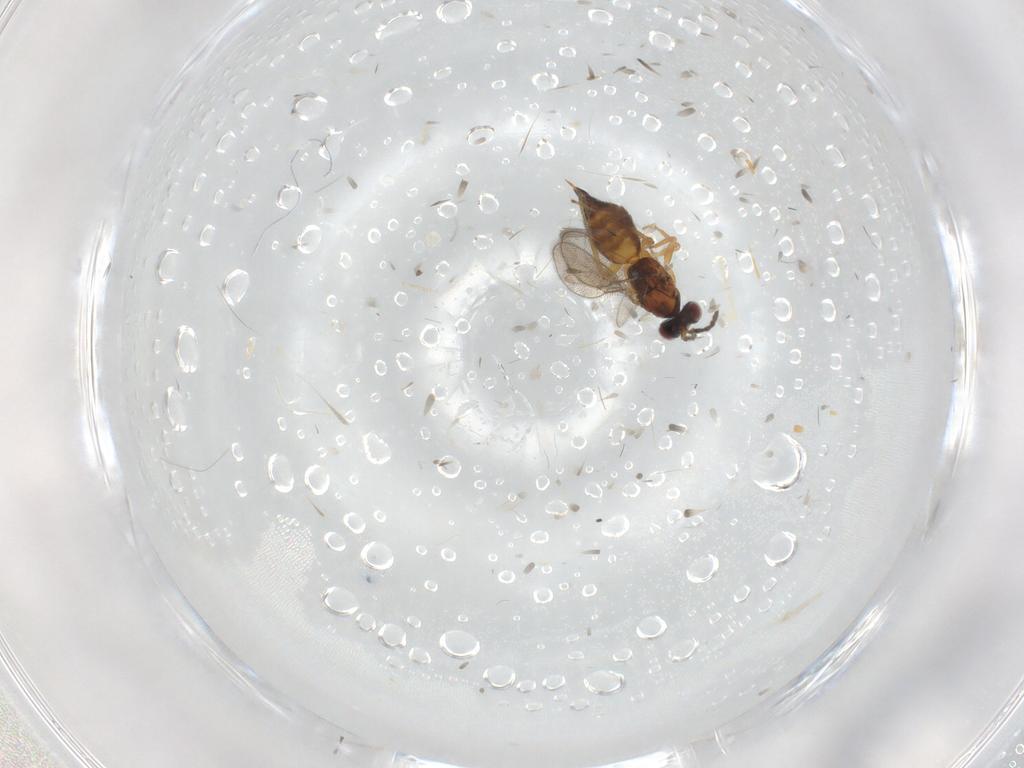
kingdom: Animalia
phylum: Arthropoda
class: Insecta
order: Hymenoptera
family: Eulophidae
